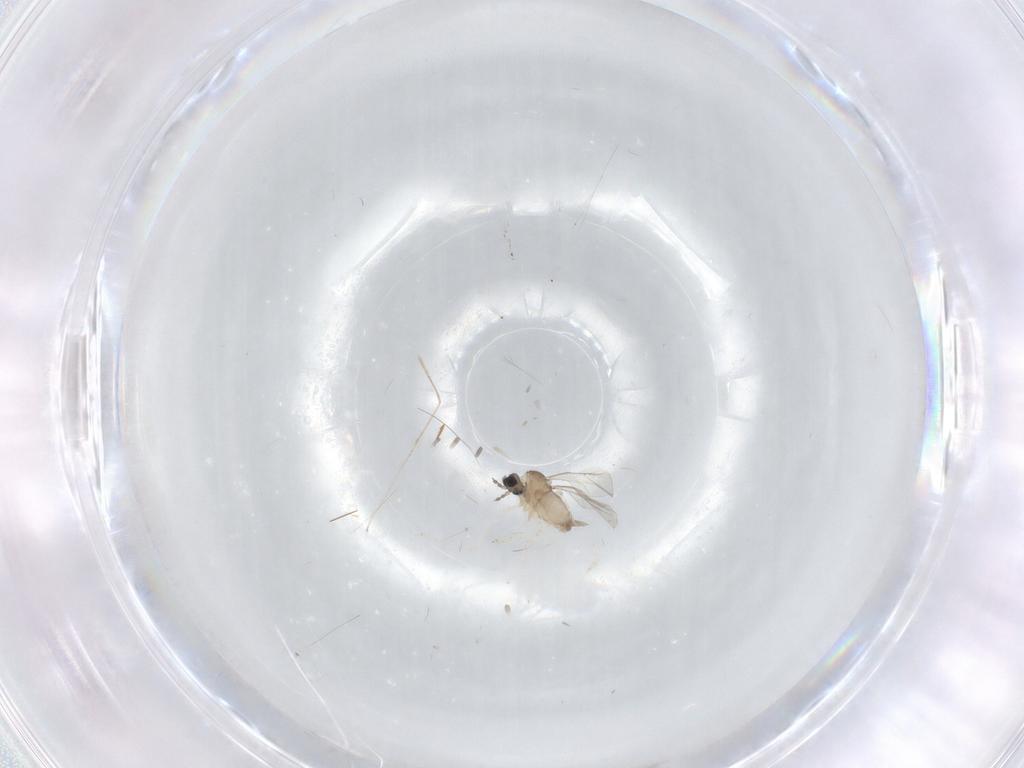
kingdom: Animalia
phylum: Arthropoda
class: Insecta
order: Diptera
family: Cecidomyiidae
